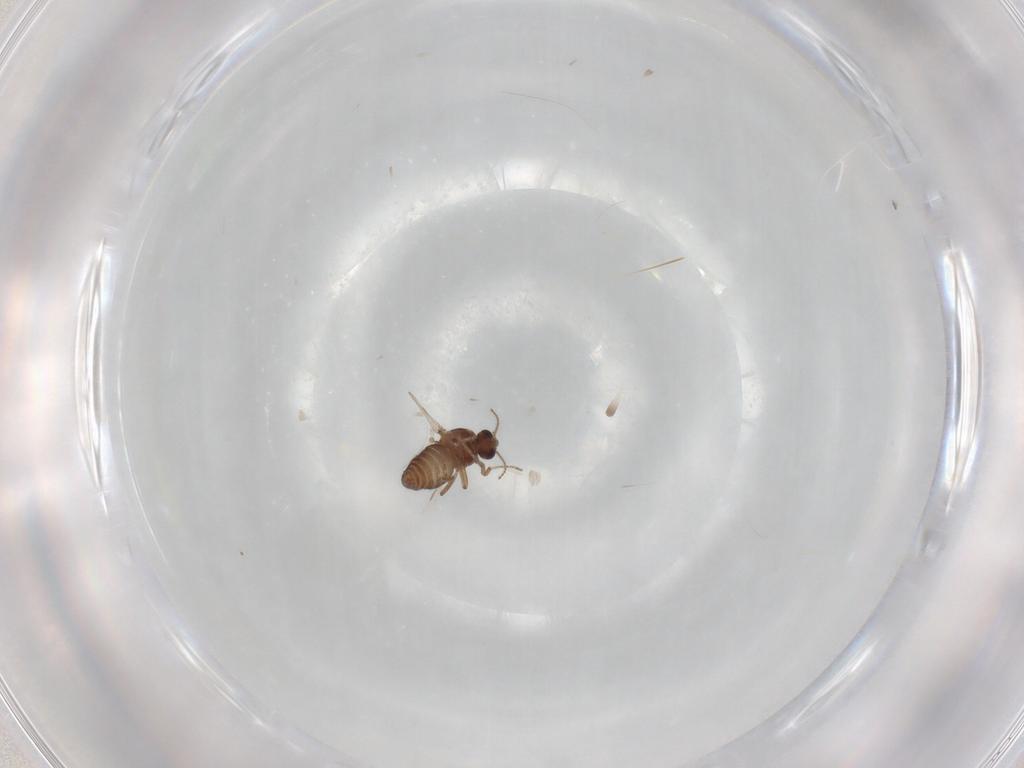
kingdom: Animalia
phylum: Arthropoda
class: Insecta
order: Diptera
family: Ceratopogonidae
